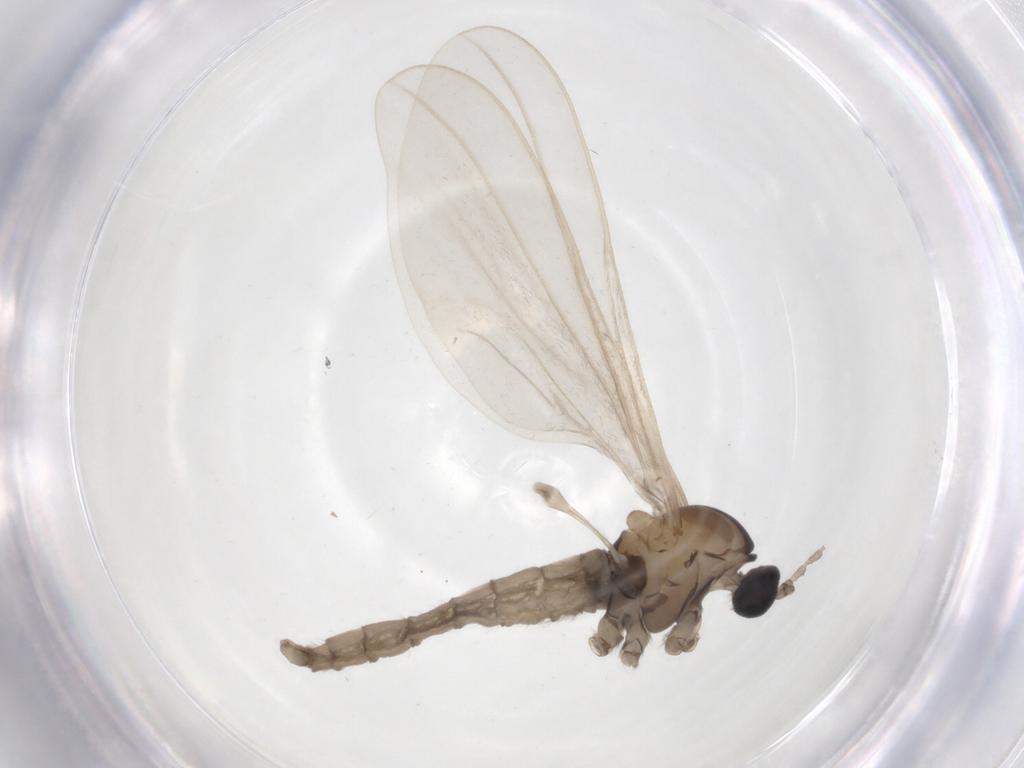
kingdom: Animalia
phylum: Arthropoda
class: Insecta
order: Diptera
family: Cecidomyiidae
